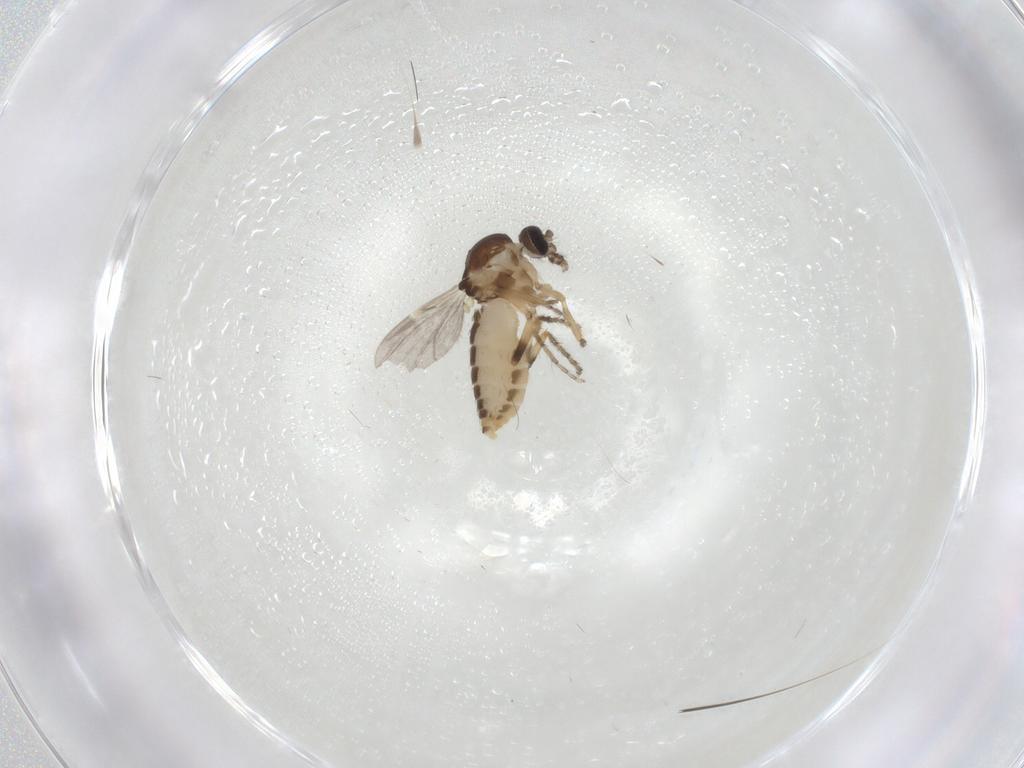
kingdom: Animalia
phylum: Arthropoda
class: Insecta
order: Diptera
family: Ceratopogonidae
